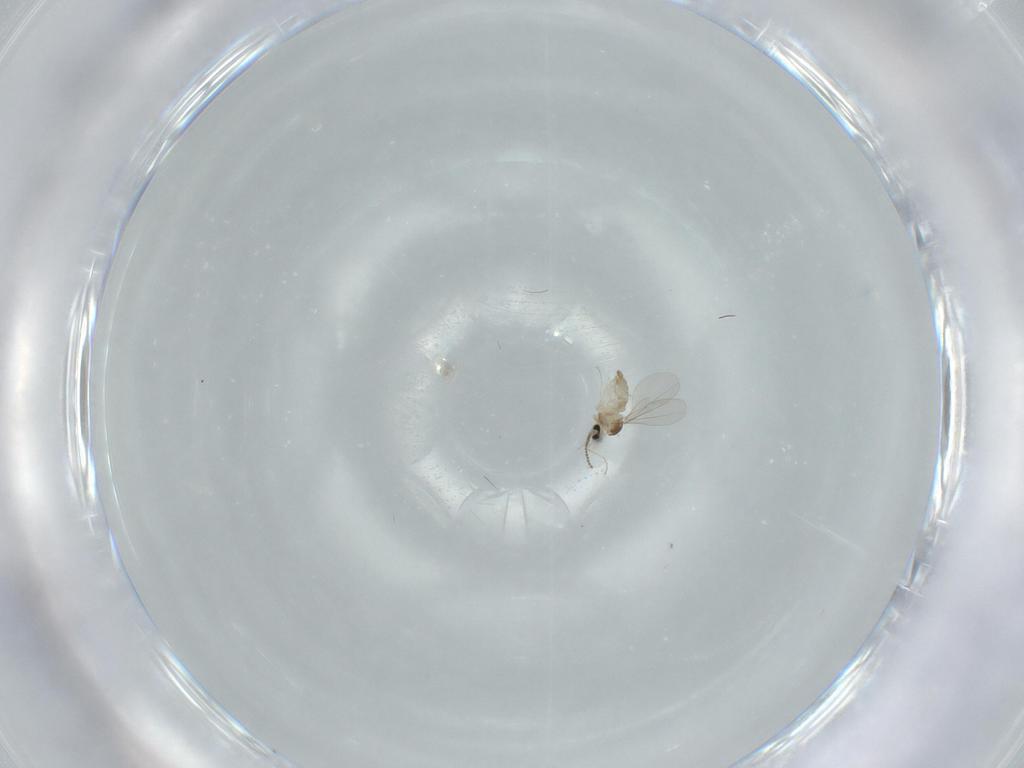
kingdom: Animalia
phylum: Arthropoda
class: Insecta
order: Diptera
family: Cecidomyiidae
